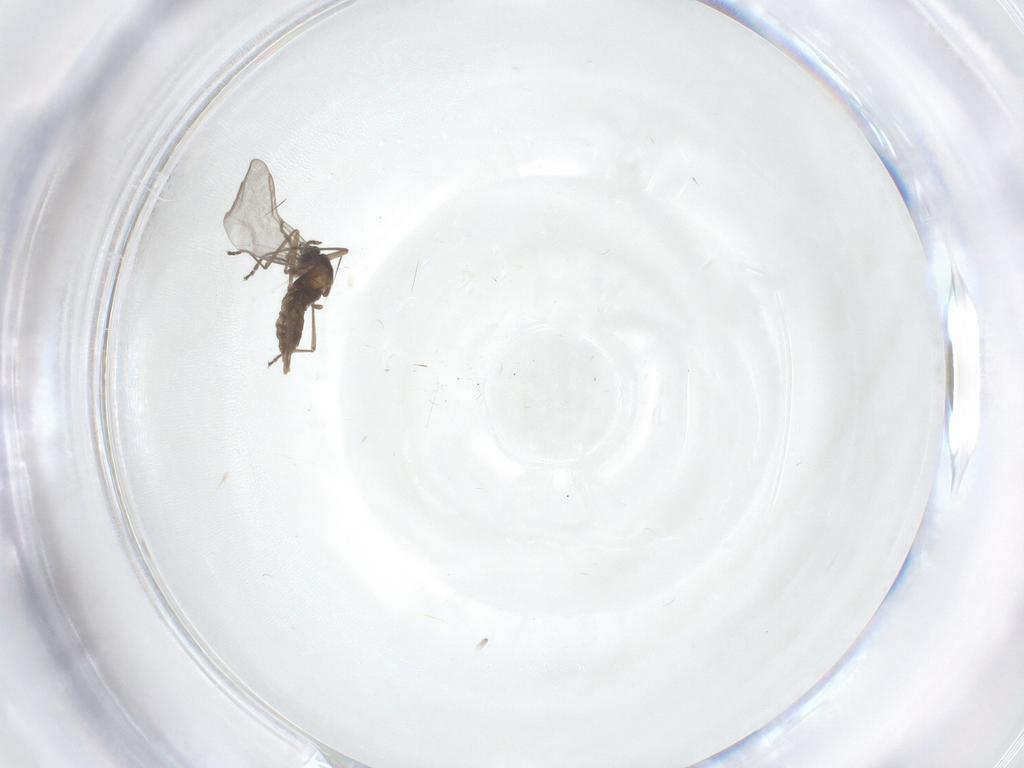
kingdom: Animalia
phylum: Arthropoda
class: Insecta
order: Diptera
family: Cecidomyiidae
